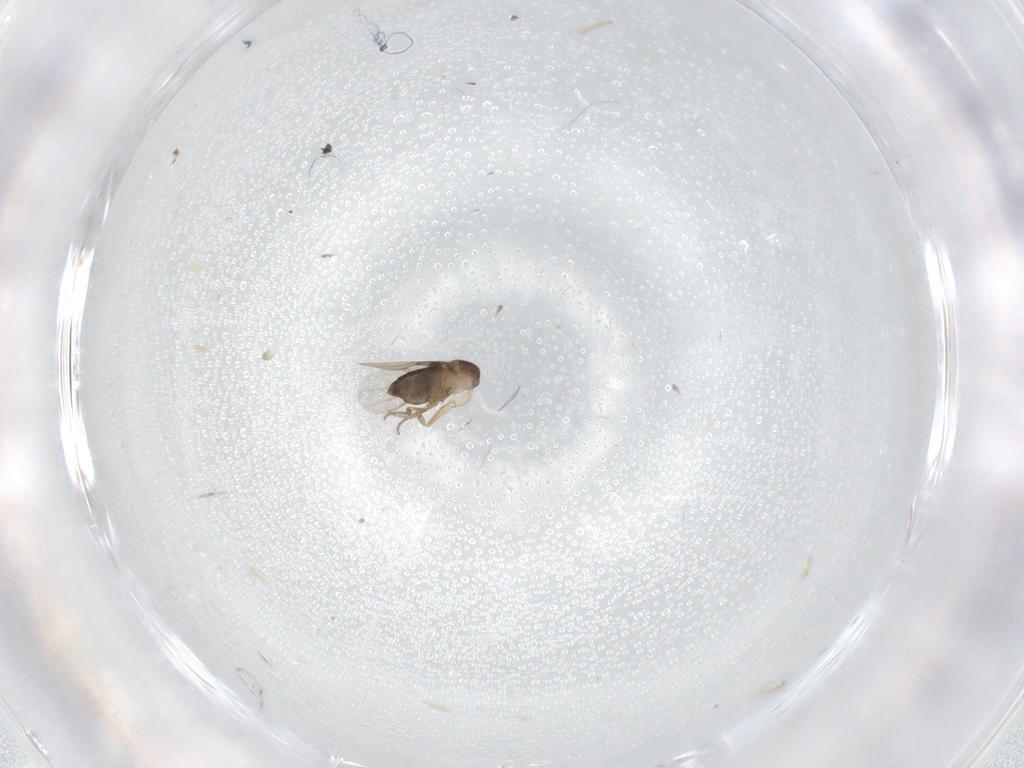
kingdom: Animalia
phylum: Arthropoda
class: Insecta
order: Diptera
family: Phoridae
